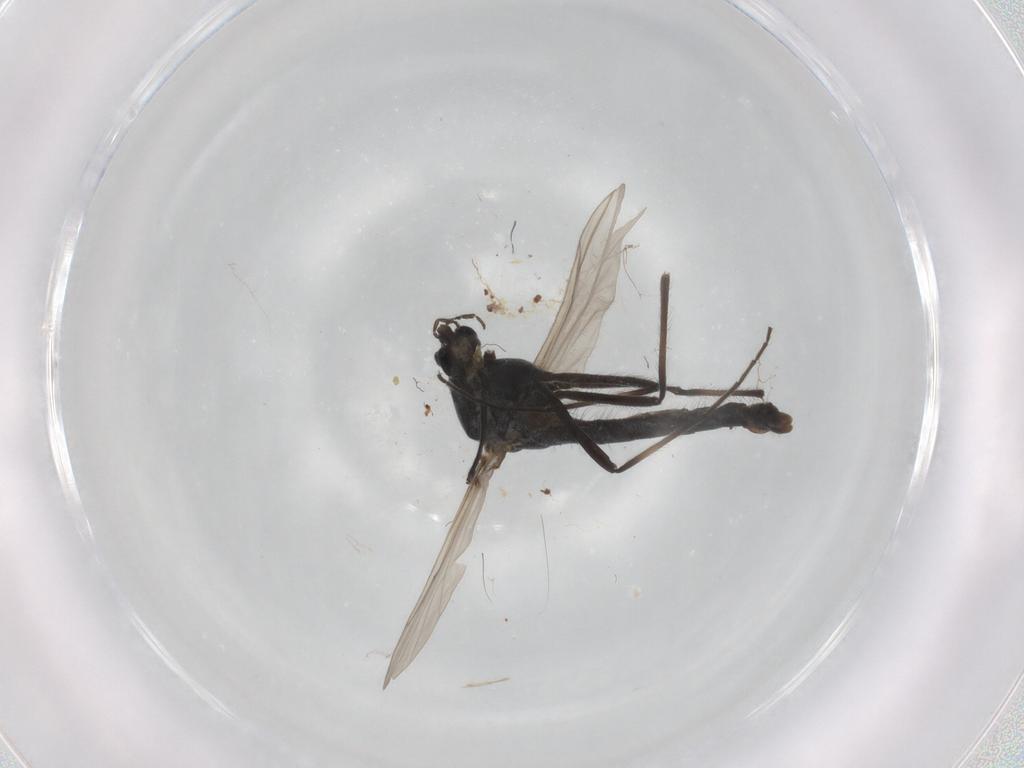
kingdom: Animalia
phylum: Arthropoda
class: Insecta
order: Diptera
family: Chironomidae
